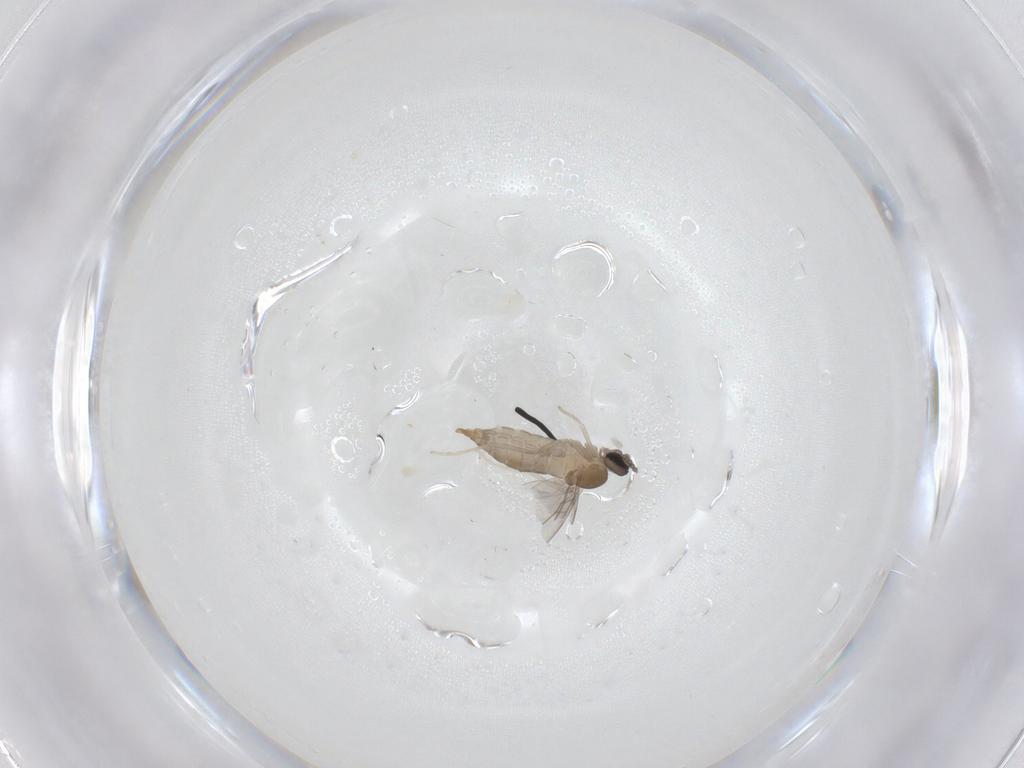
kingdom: Animalia
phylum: Arthropoda
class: Insecta
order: Diptera
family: Cecidomyiidae
